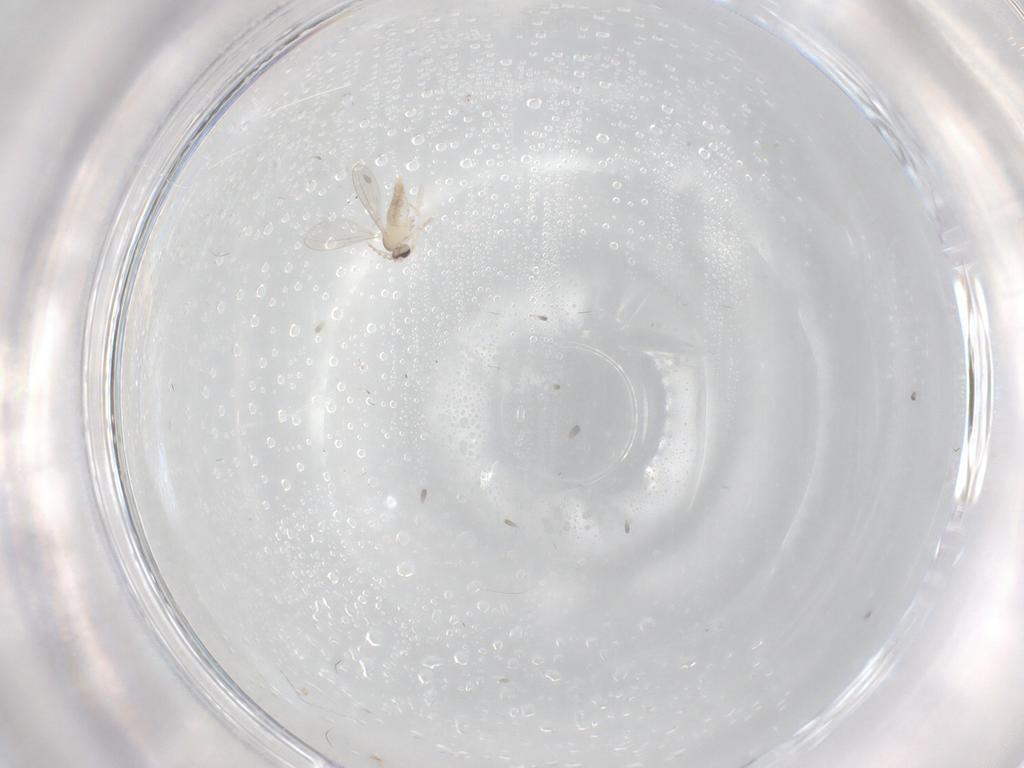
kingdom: Animalia
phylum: Arthropoda
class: Insecta
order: Diptera
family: Cecidomyiidae
